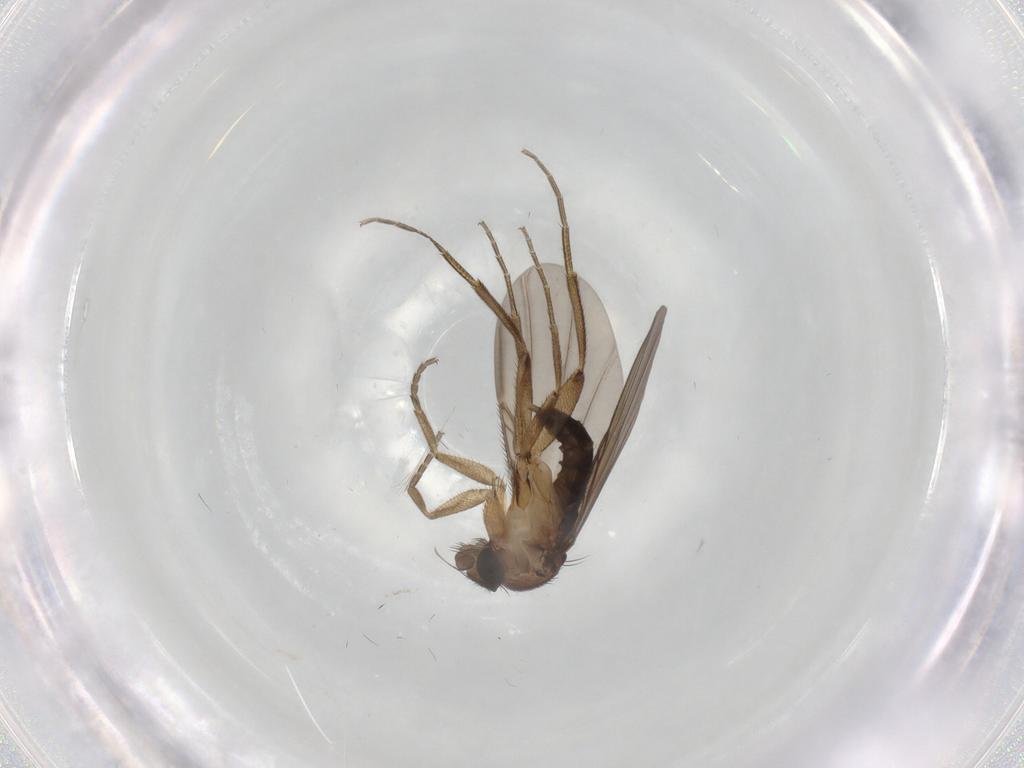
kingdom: Animalia
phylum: Arthropoda
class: Insecta
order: Diptera
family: Phoridae
